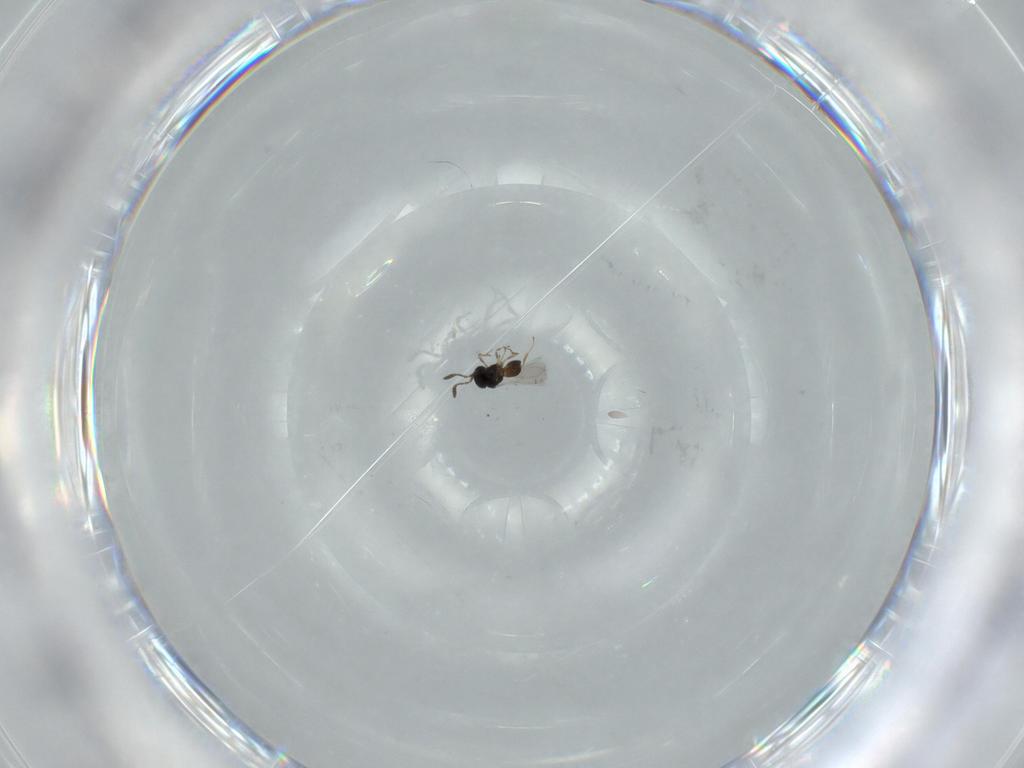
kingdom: Animalia
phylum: Arthropoda
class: Insecta
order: Hymenoptera
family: Scelionidae
